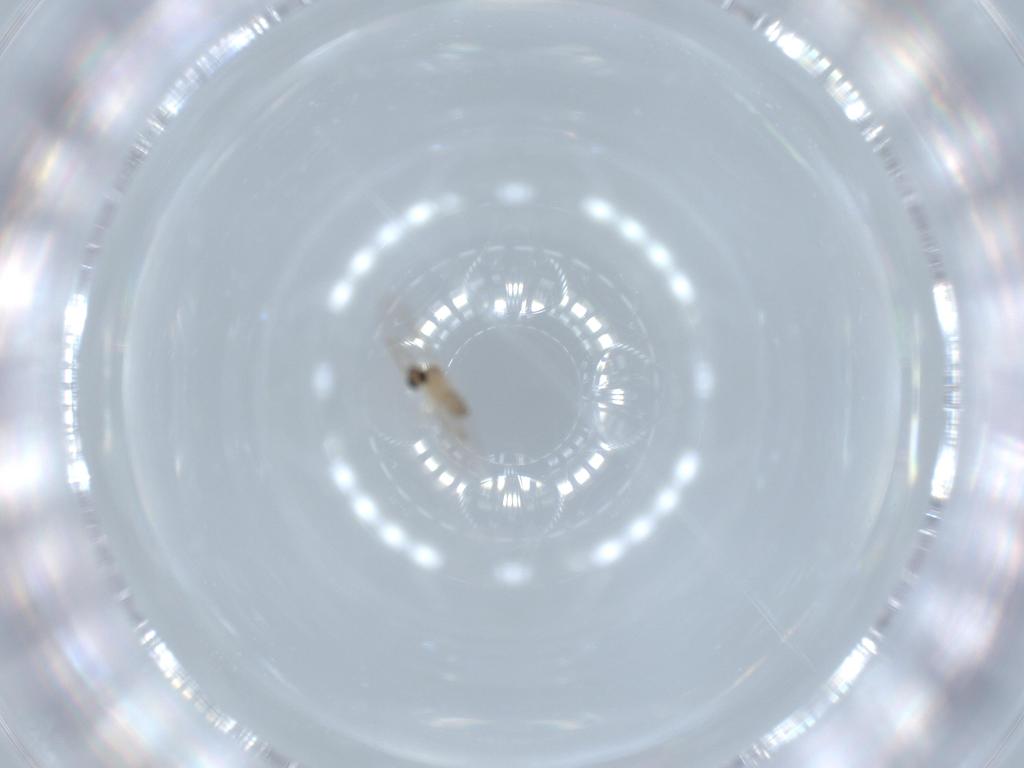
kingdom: Animalia
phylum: Arthropoda
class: Insecta
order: Diptera
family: Cecidomyiidae
